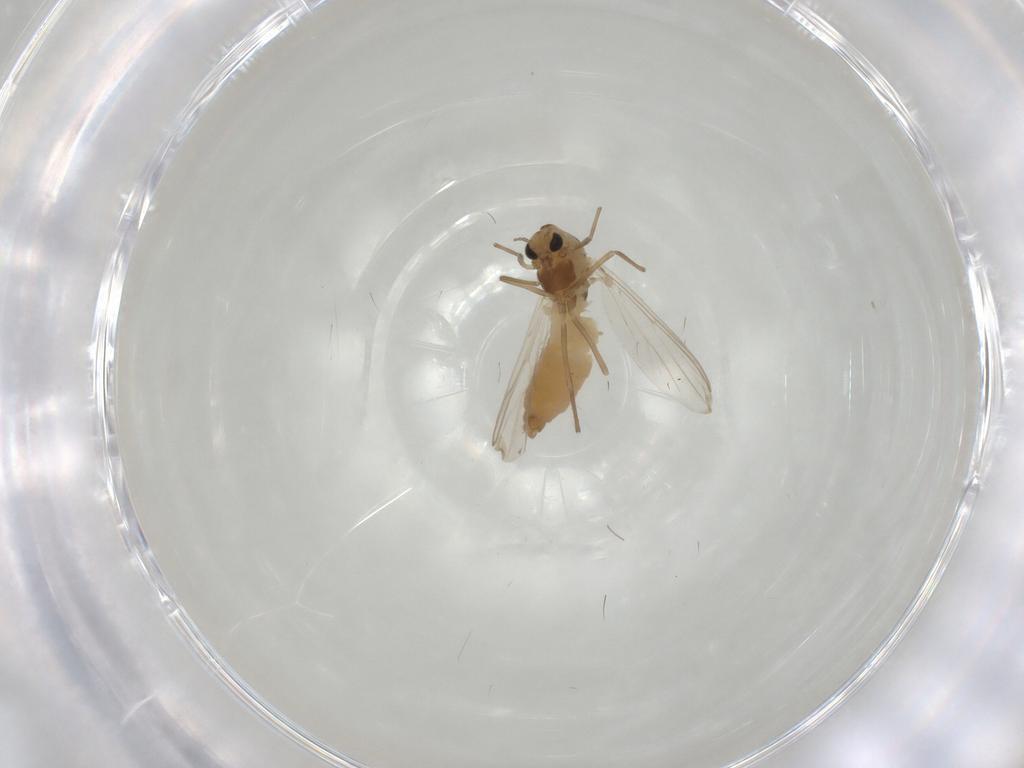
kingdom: Animalia
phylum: Arthropoda
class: Insecta
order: Diptera
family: Chironomidae
